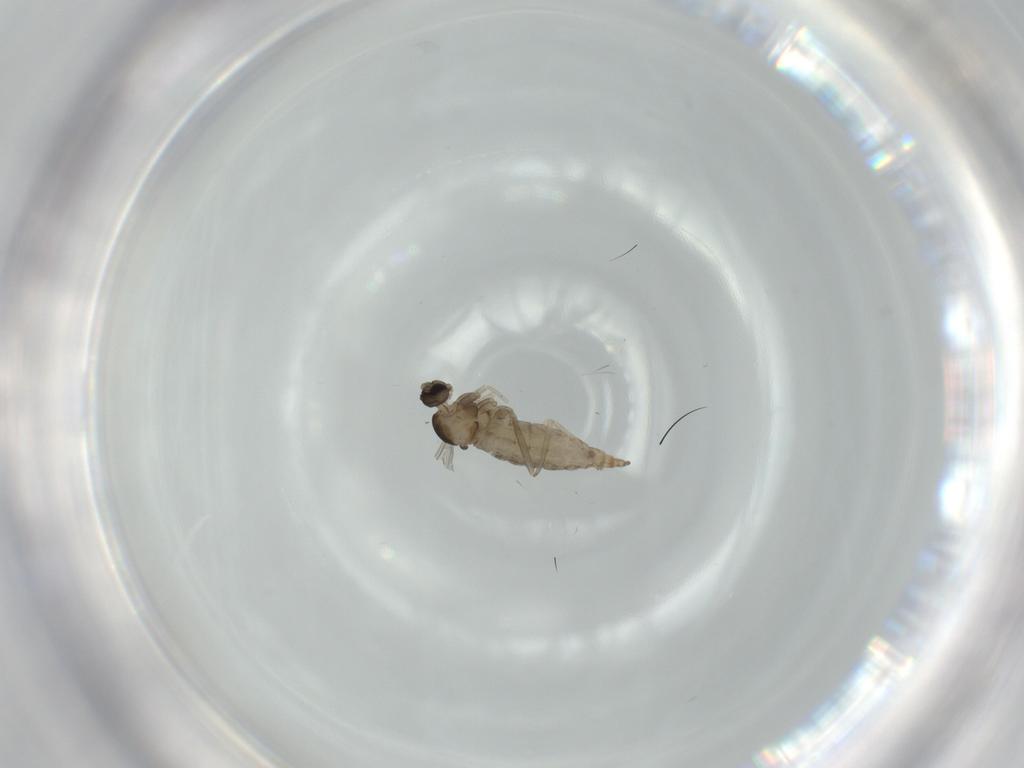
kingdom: Animalia
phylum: Arthropoda
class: Insecta
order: Diptera
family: Cecidomyiidae
